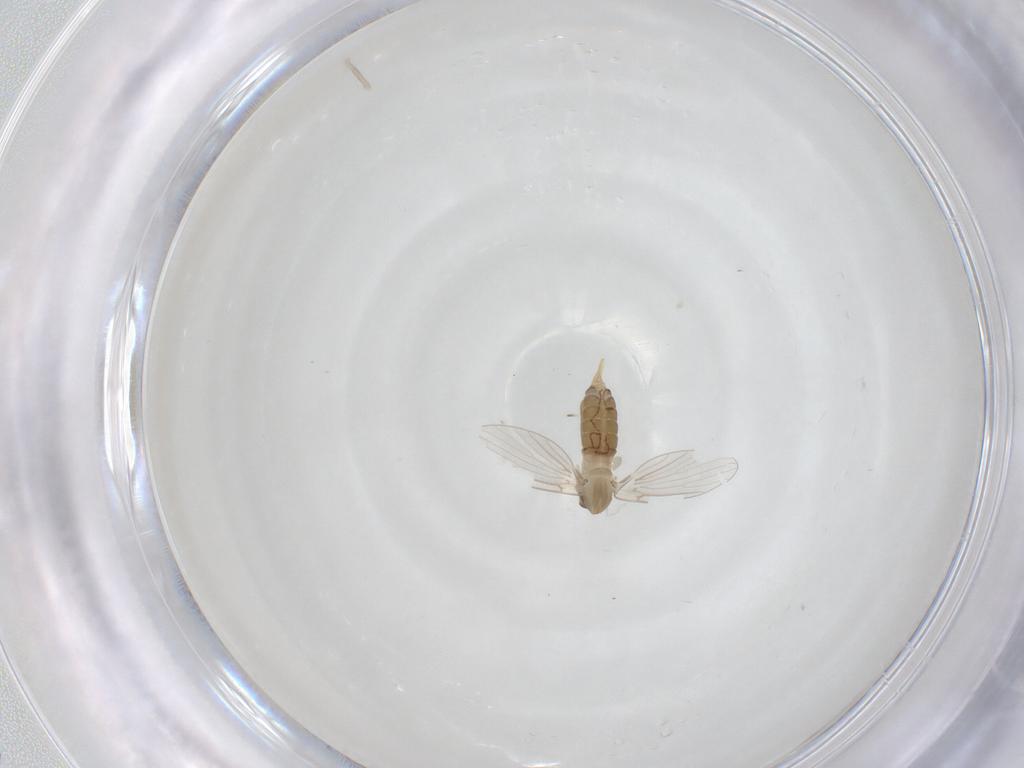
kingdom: Animalia
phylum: Arthropoda
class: Insecta
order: Diptera
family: Psychodidae
